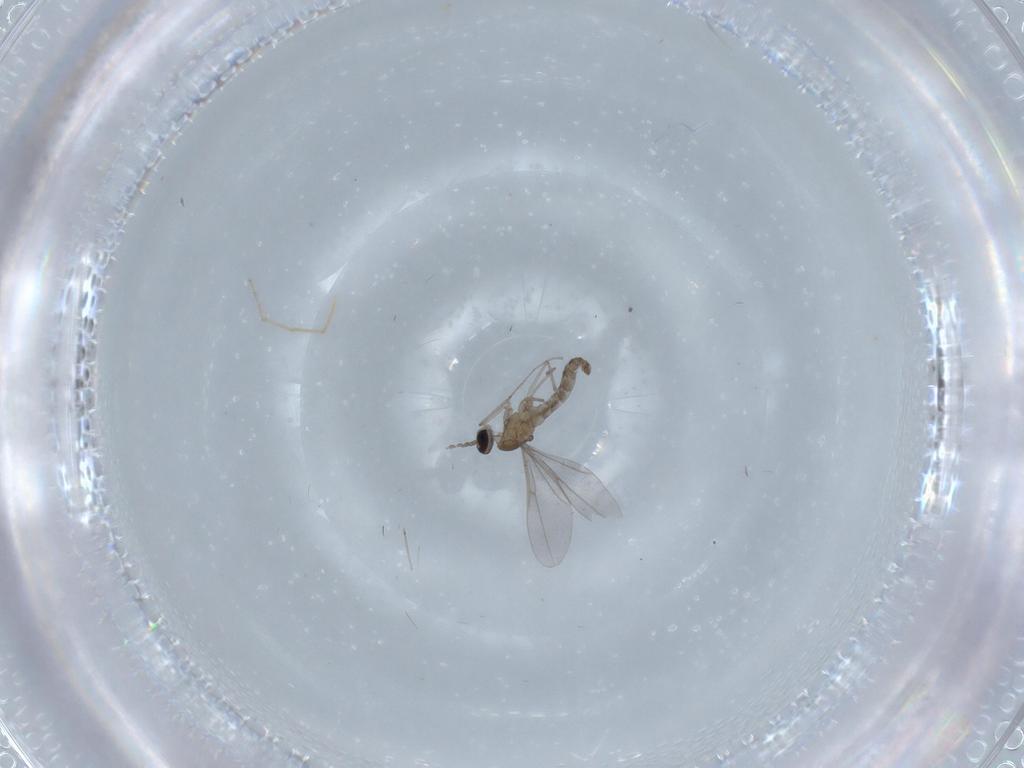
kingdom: Animalia
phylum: Arthropoda
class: Insecta
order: Diptera
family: Chironomidae
